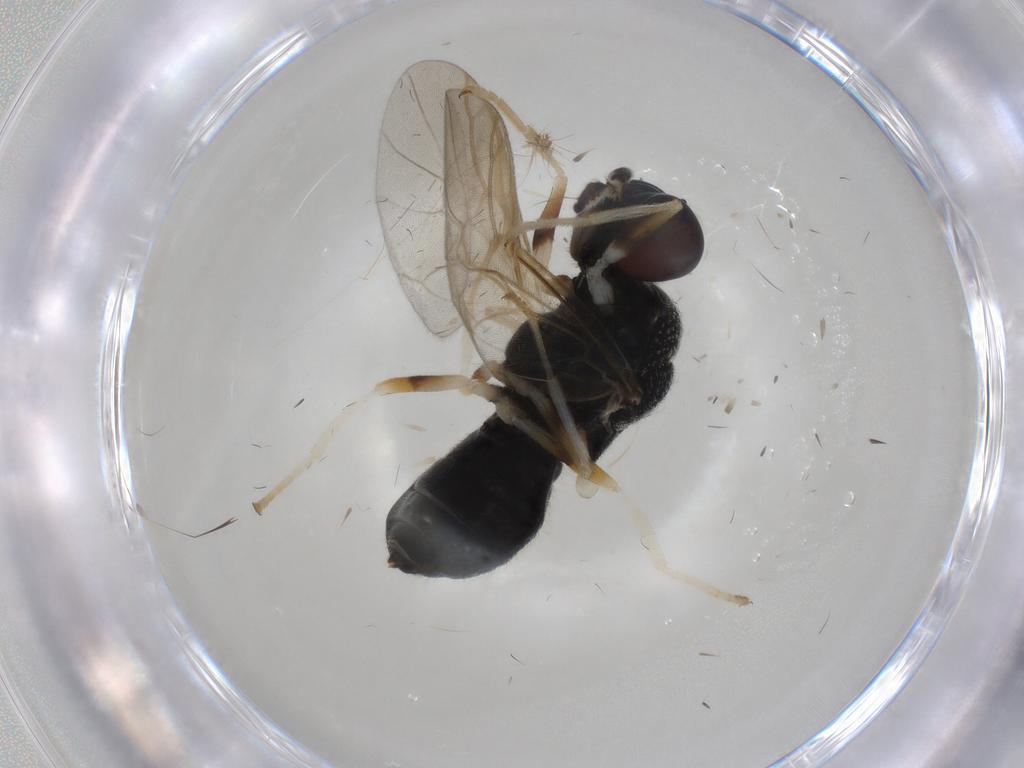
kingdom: Animalia
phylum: Arthropoda
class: Insecta
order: Diptera
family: Stratiomyidae
